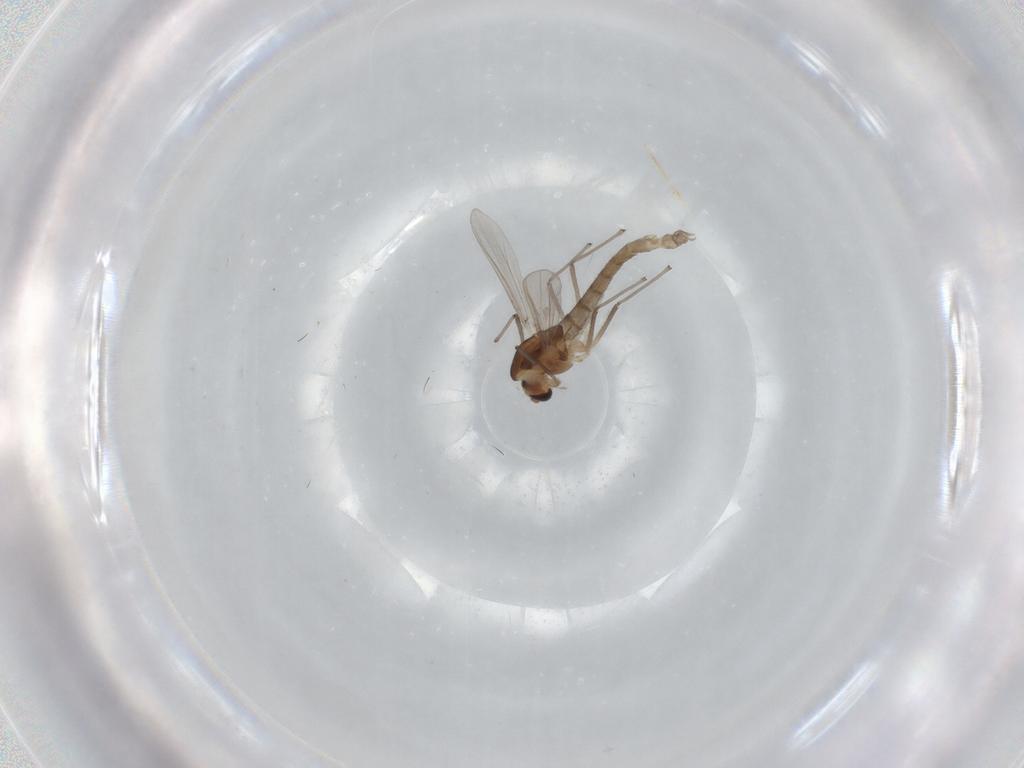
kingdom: Animalia
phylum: Arthropoda
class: Insecta
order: Diptera
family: Chironomidae
